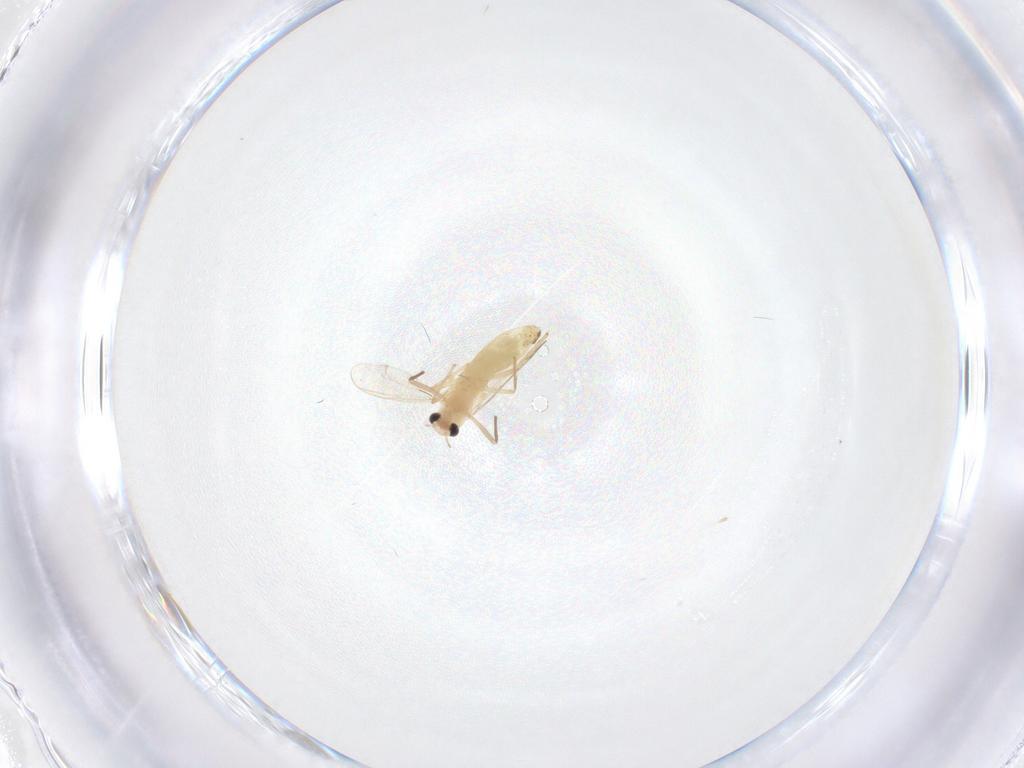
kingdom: Animalia
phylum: Arthropoda
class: Insecta
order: Diptera
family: Chironomidae
